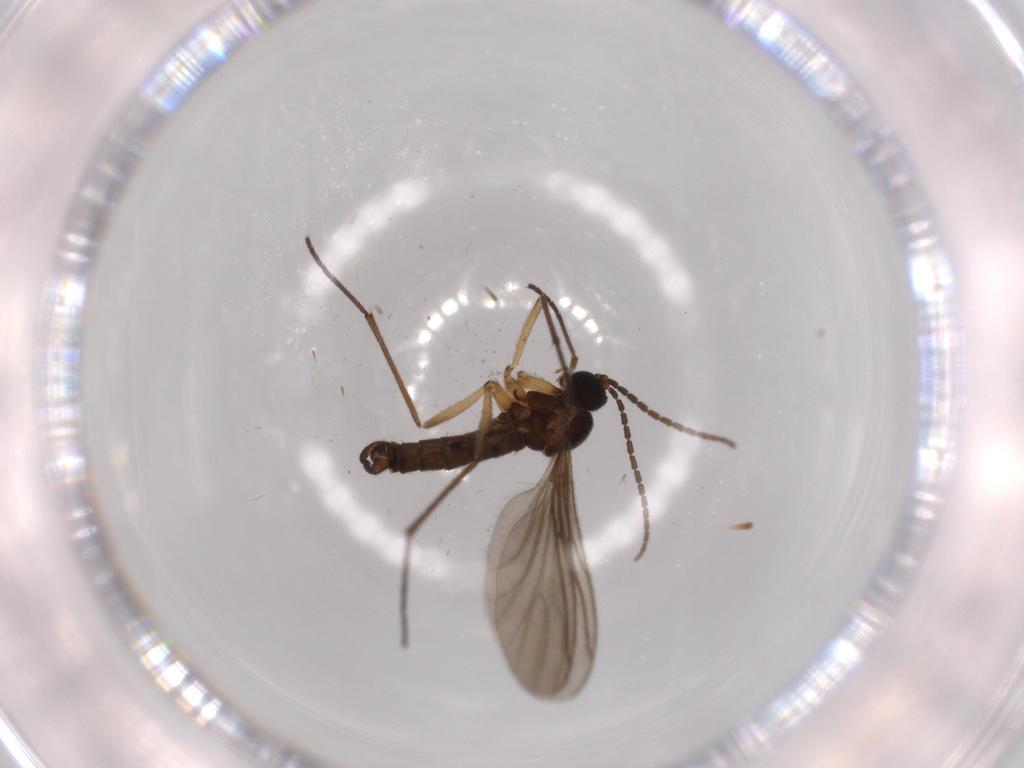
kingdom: Animalia
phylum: Arthropoda
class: Insecta
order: Diptera
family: Sciaridae
